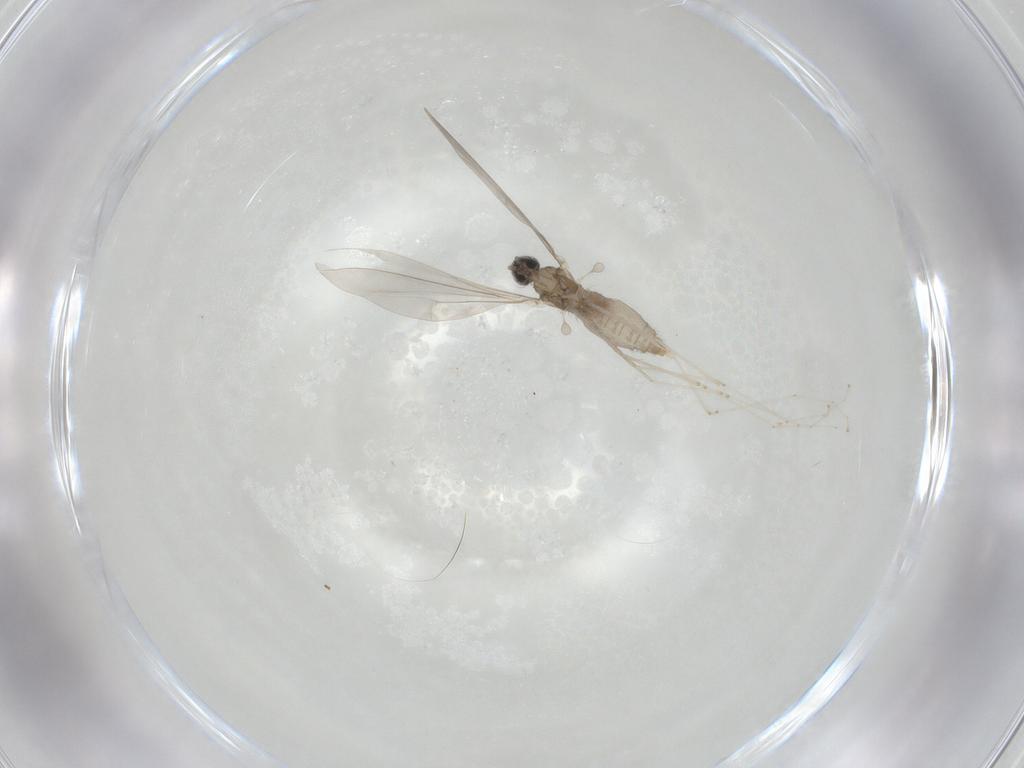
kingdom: Animalia
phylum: Arthropoda
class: Insecta
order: Diptera
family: Cecidomyiidae
